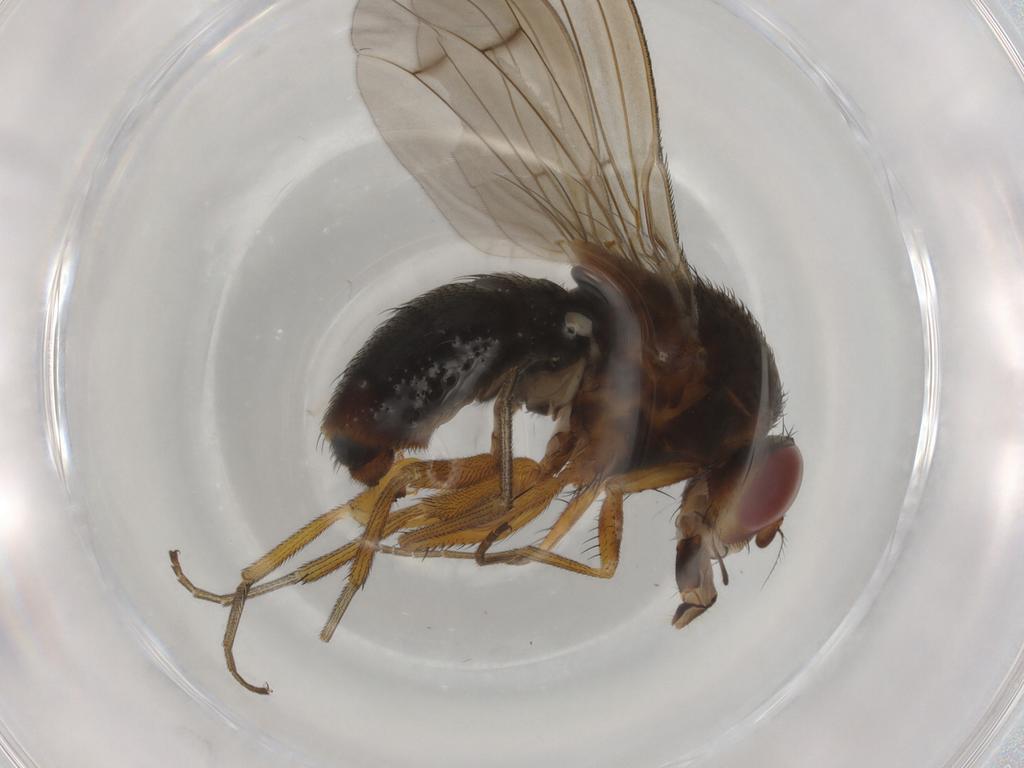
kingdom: Animalia
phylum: Arthropoda
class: Insecta
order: Diptera
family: Curtonotidae
